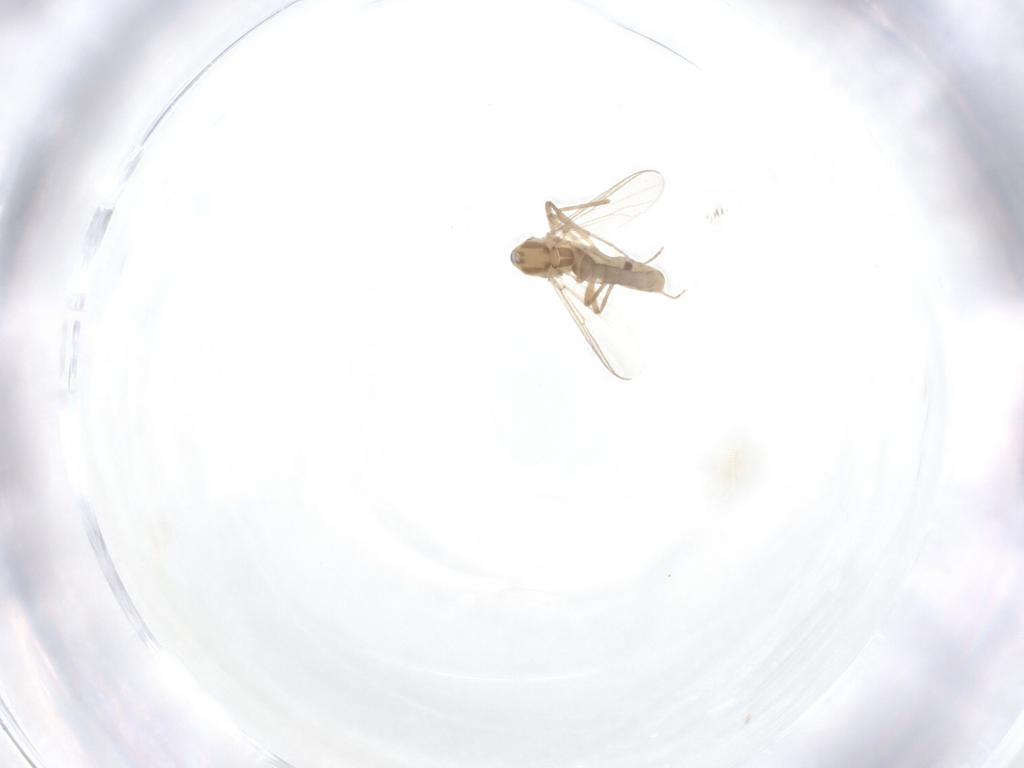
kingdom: Animalia
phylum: Arthropoda
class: Insecta
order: Diptera
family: Chironomidae
